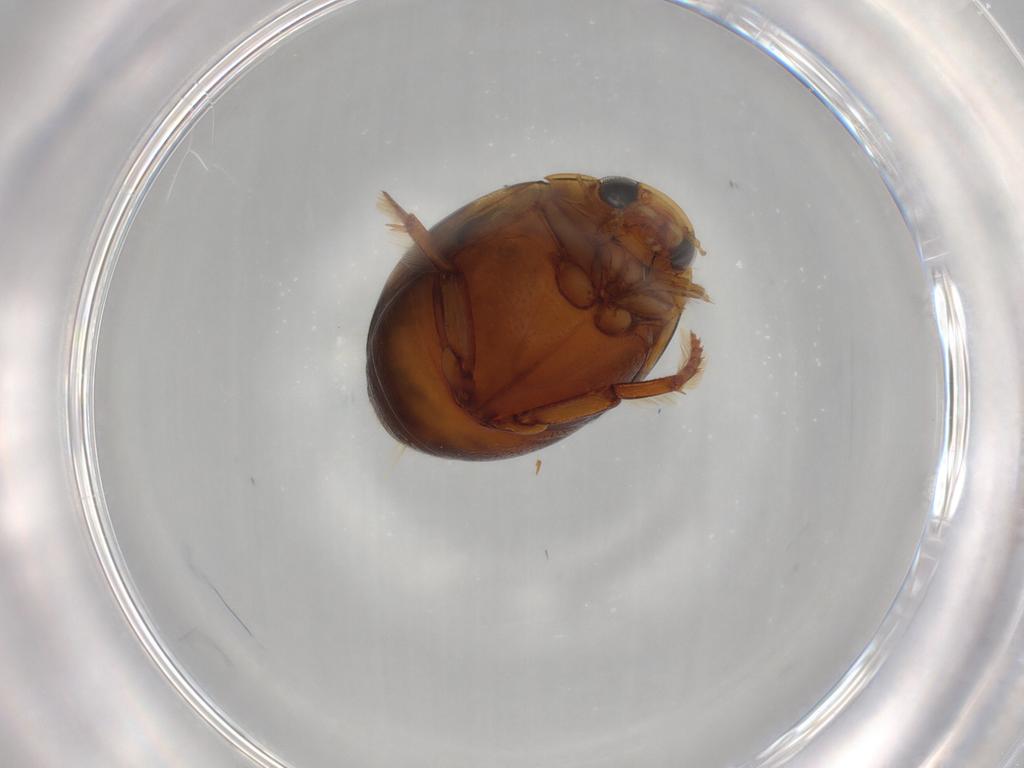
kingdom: Animalia
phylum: Arthropoda
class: Insecta
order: Coleoptera
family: Dytiscidae
